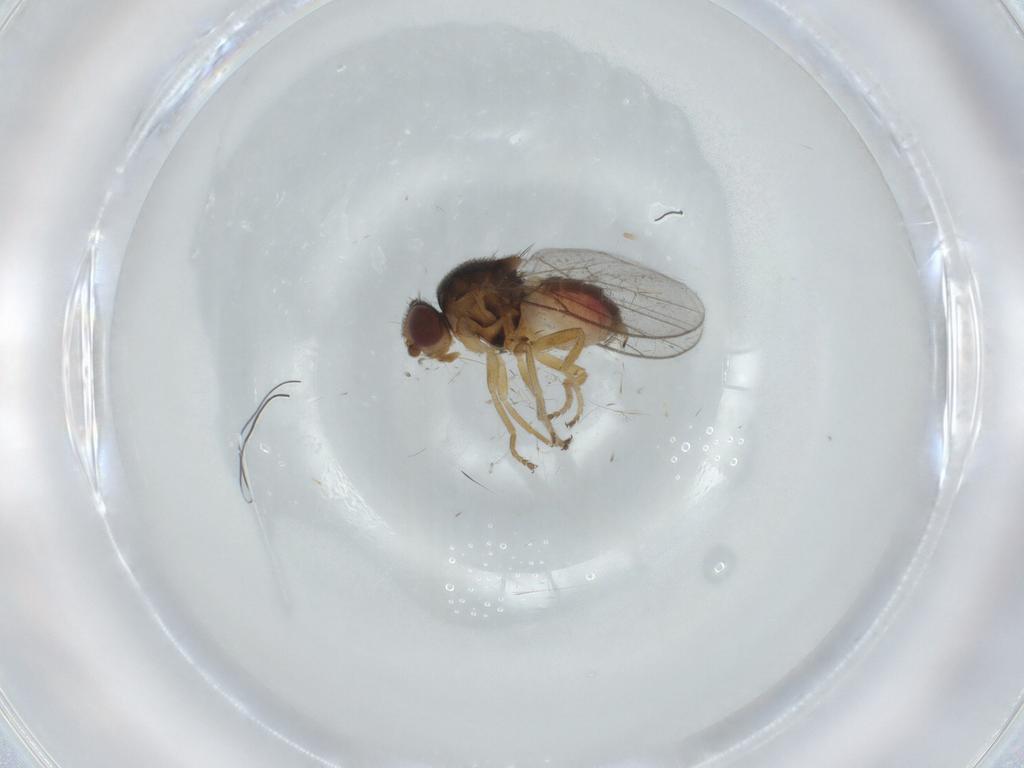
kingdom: Animalia
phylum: Arthropoda
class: Insecta
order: Diptera
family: Chloropidae
